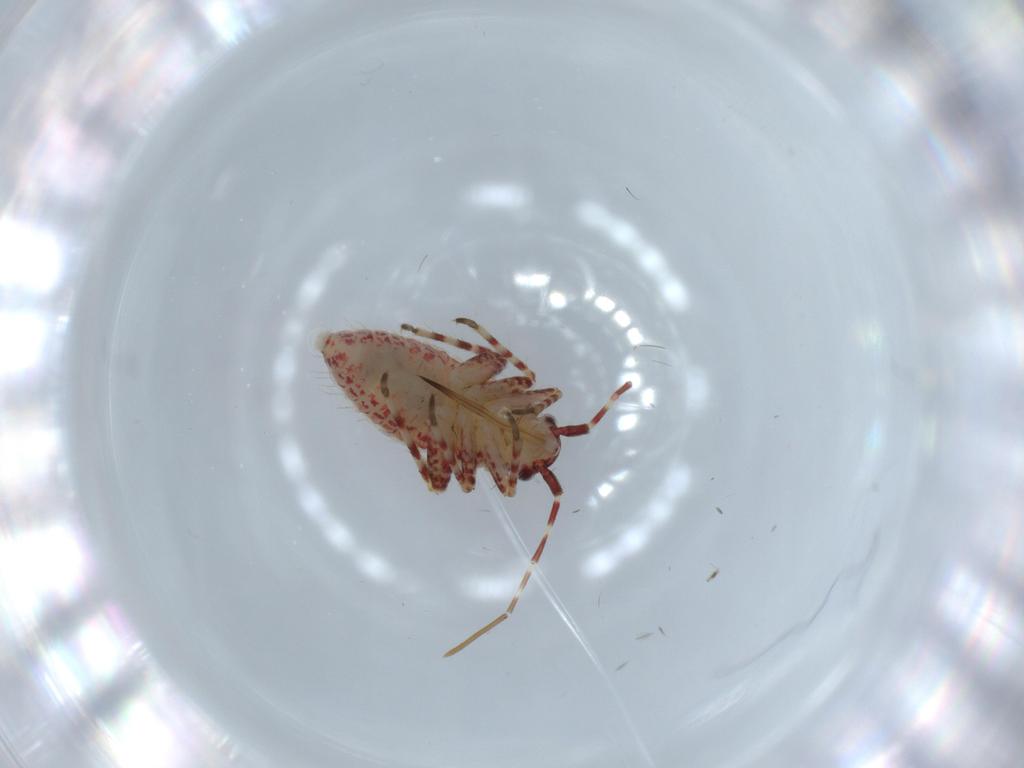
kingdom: Animalia
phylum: Arthropoda
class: Insecta
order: Hemiptera
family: Miridae
